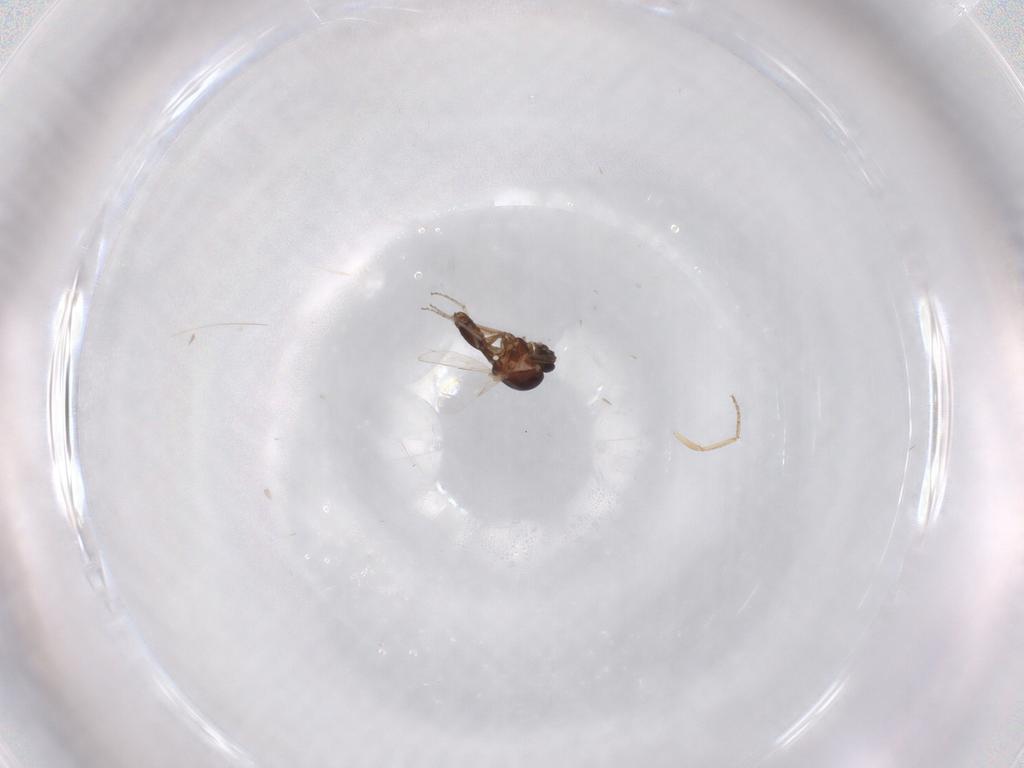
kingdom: Animalia
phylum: Arthropoda
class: Insecta
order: Diptera
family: Ceratopogonidae
